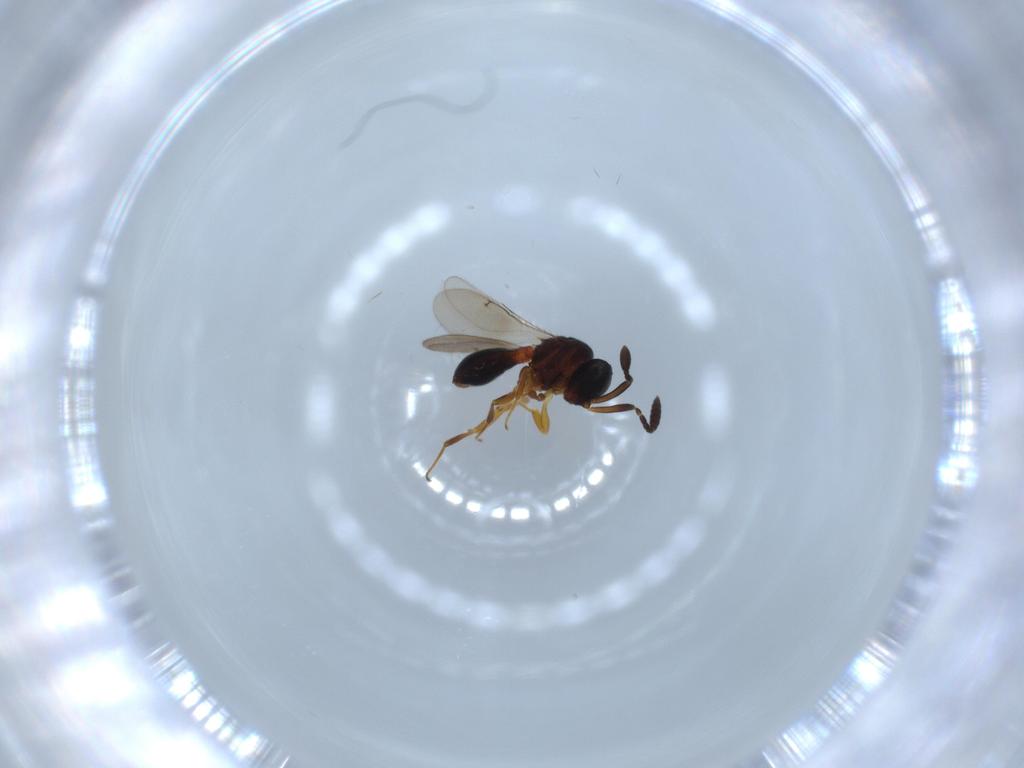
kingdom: Animalia
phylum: Arthropoda
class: Insecta
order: Hymenoptera
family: Scelionidae
